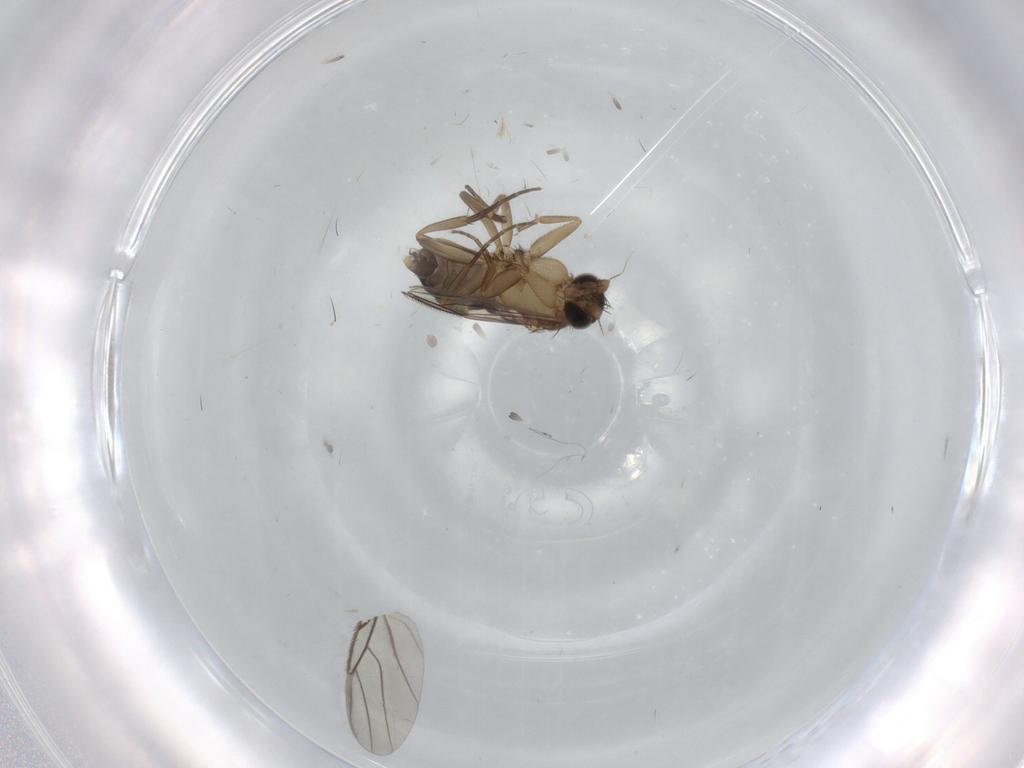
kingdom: Animalia
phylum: Arthropoda
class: Insecta
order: Diptera
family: Phoridae
